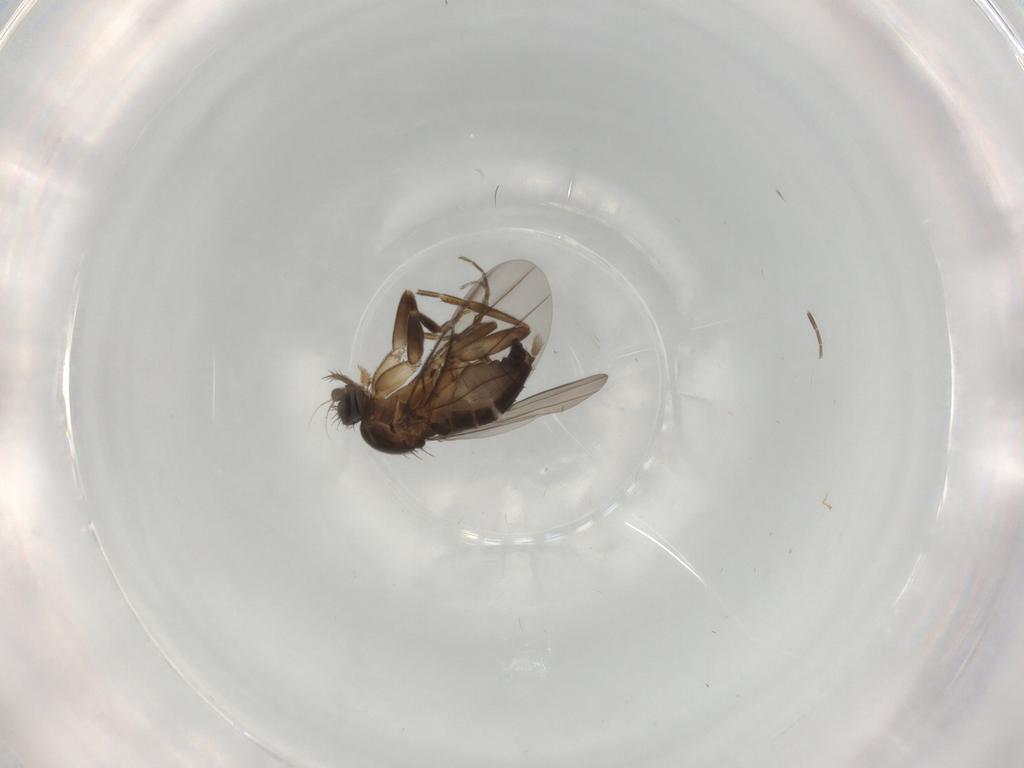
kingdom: Animalia
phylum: Arthropoda
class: Insecta
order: Diptera
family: Phoridae
